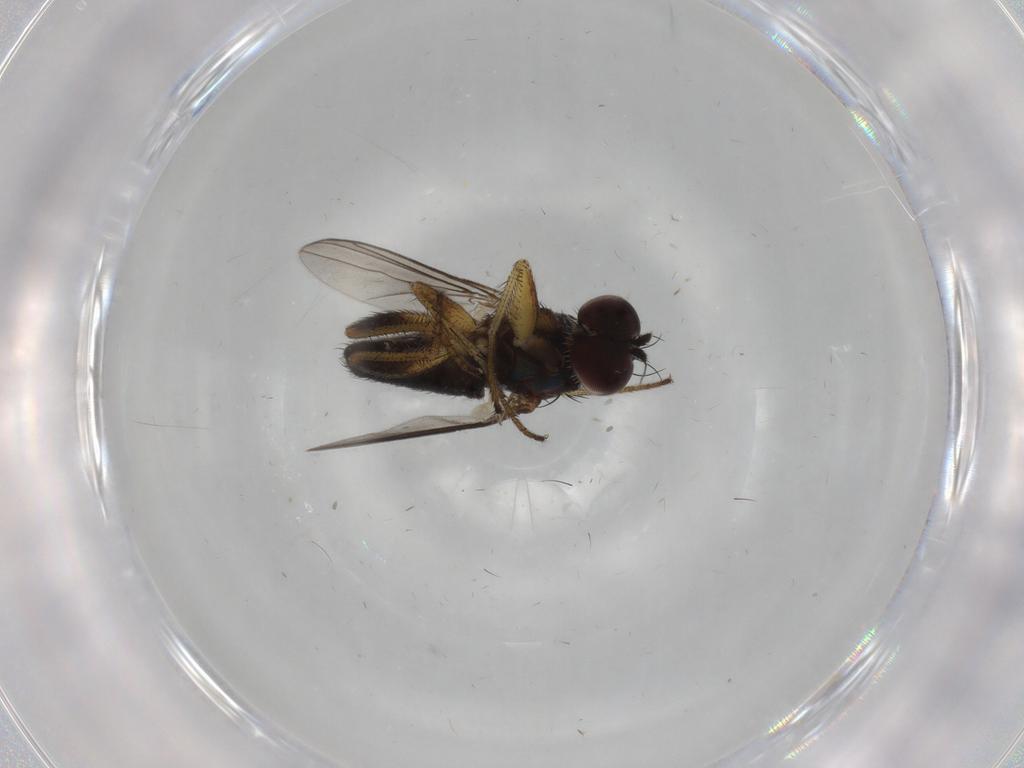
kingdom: Animalia
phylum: Arthropoda
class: Insecta
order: Diptera
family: Dolichopodidae
